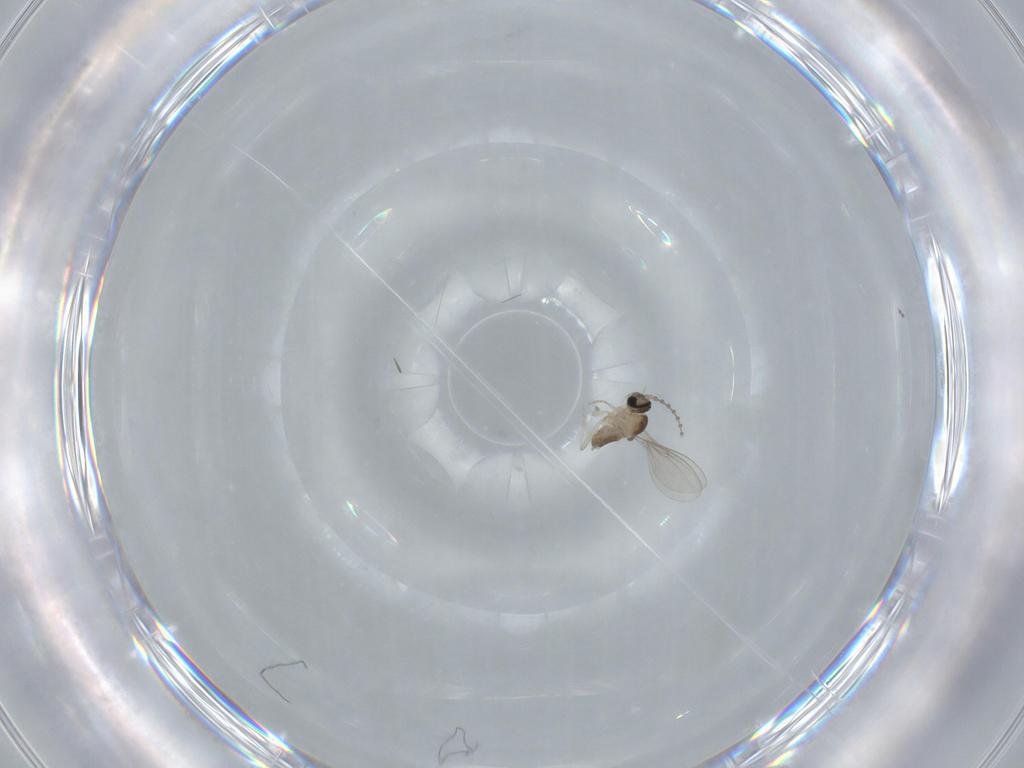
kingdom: Animalia
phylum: Arthropoda
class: Insecta
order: Diptera
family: Cecidomyiidae
